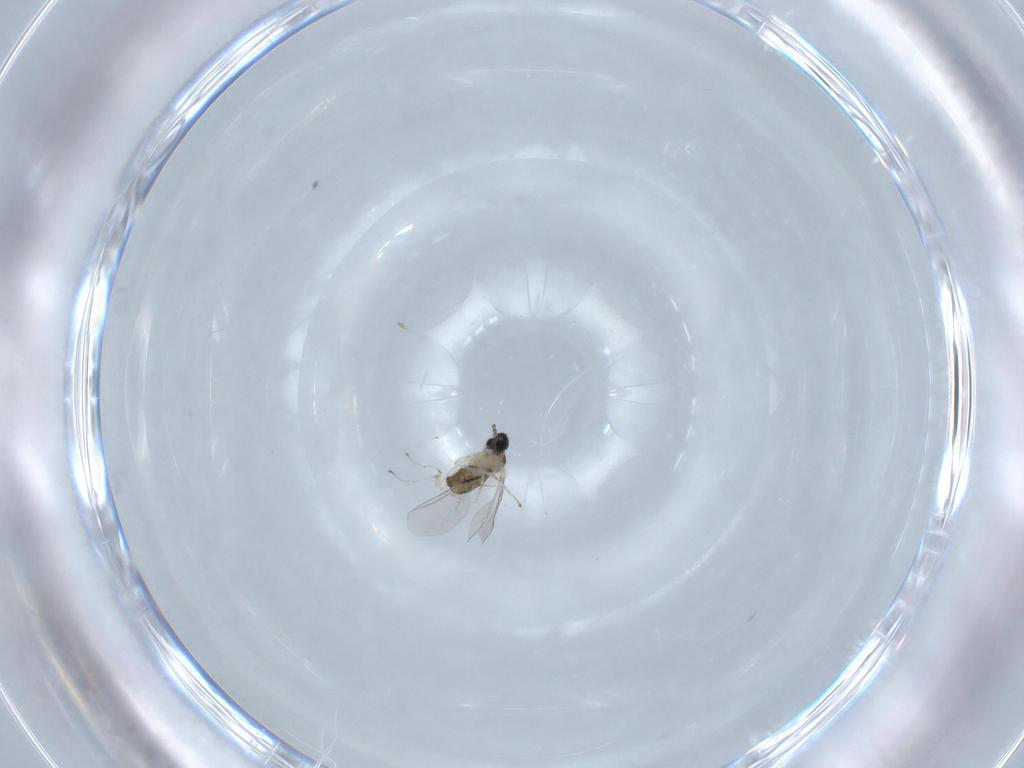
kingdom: Animalia
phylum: Arthropoda
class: Insecta
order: Diptera
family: Cecidomyiidae
